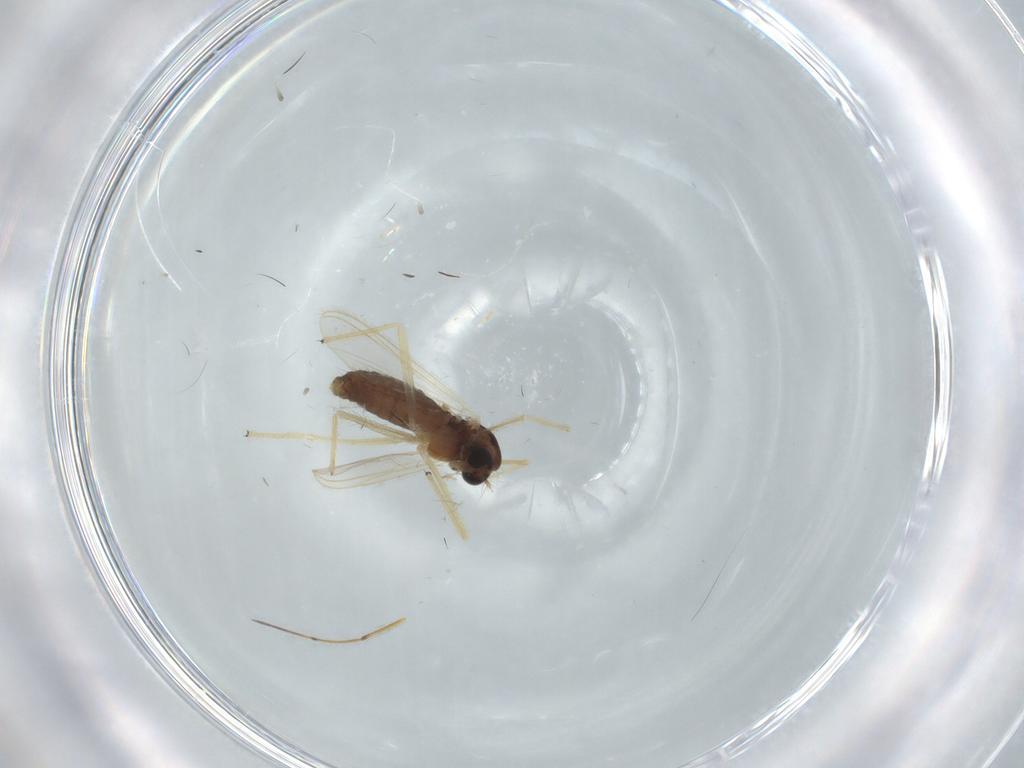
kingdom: Animalia
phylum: Arthropoda
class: Insecta
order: Diptera
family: Chironomidae
